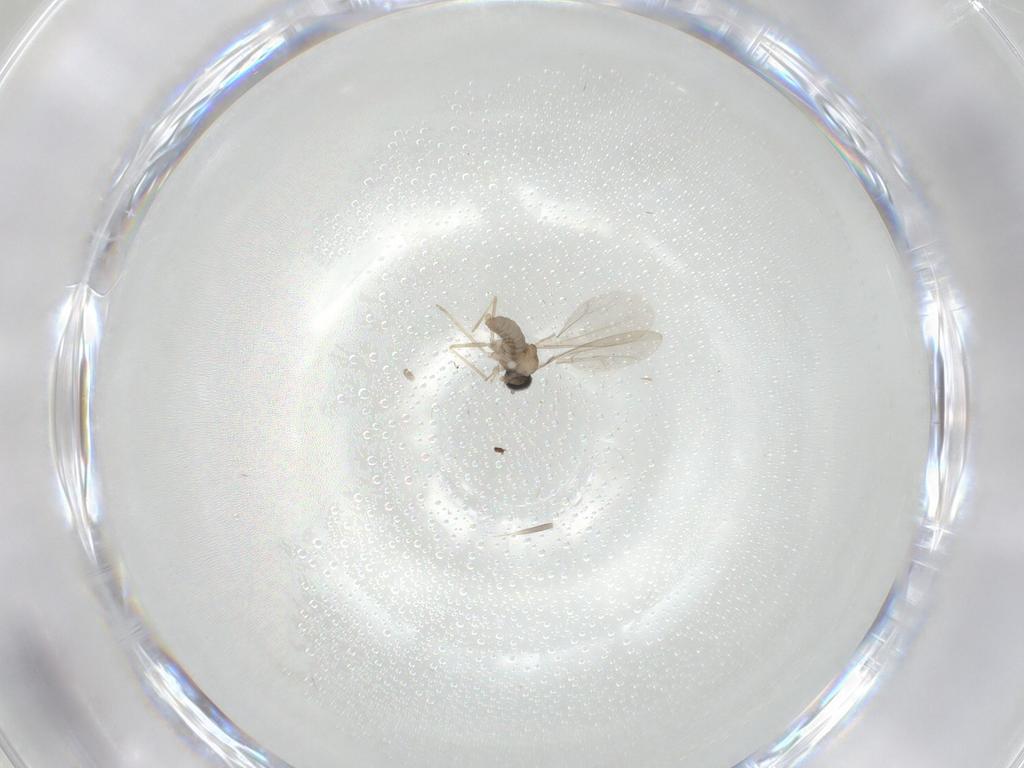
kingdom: Animalia
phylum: Arthropoda
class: Insecta
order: Diptera
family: Cecidomyiidae
